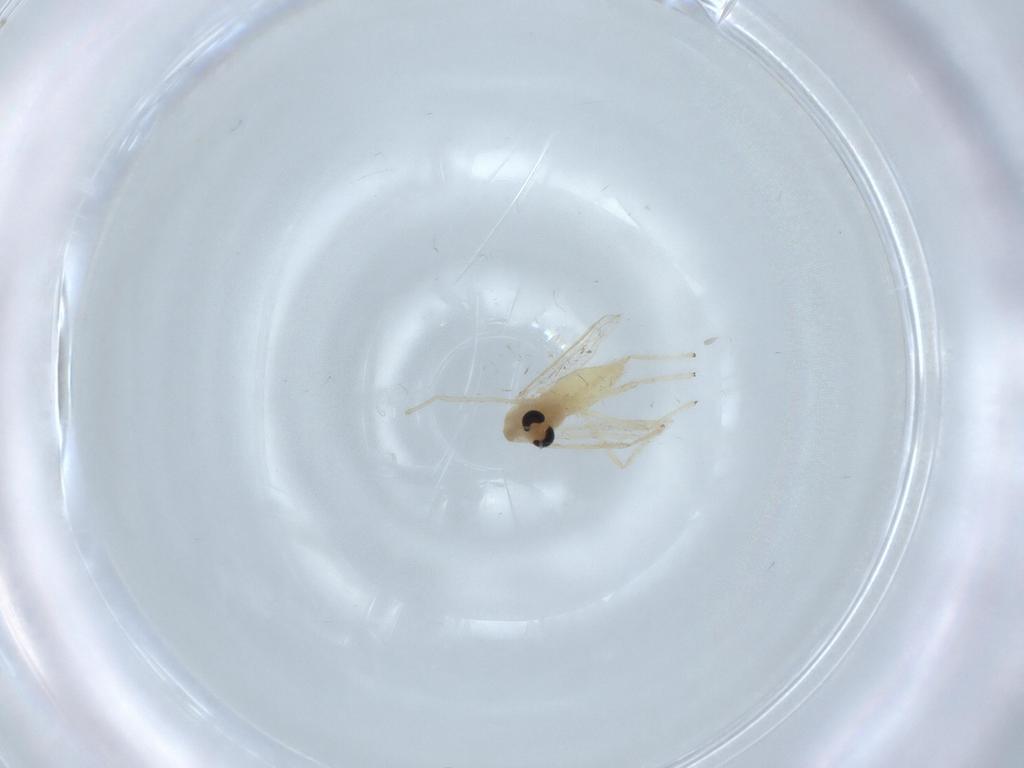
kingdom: Animalia
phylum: Arthropoda
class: Insecta
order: Diptera
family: Chironomidae
